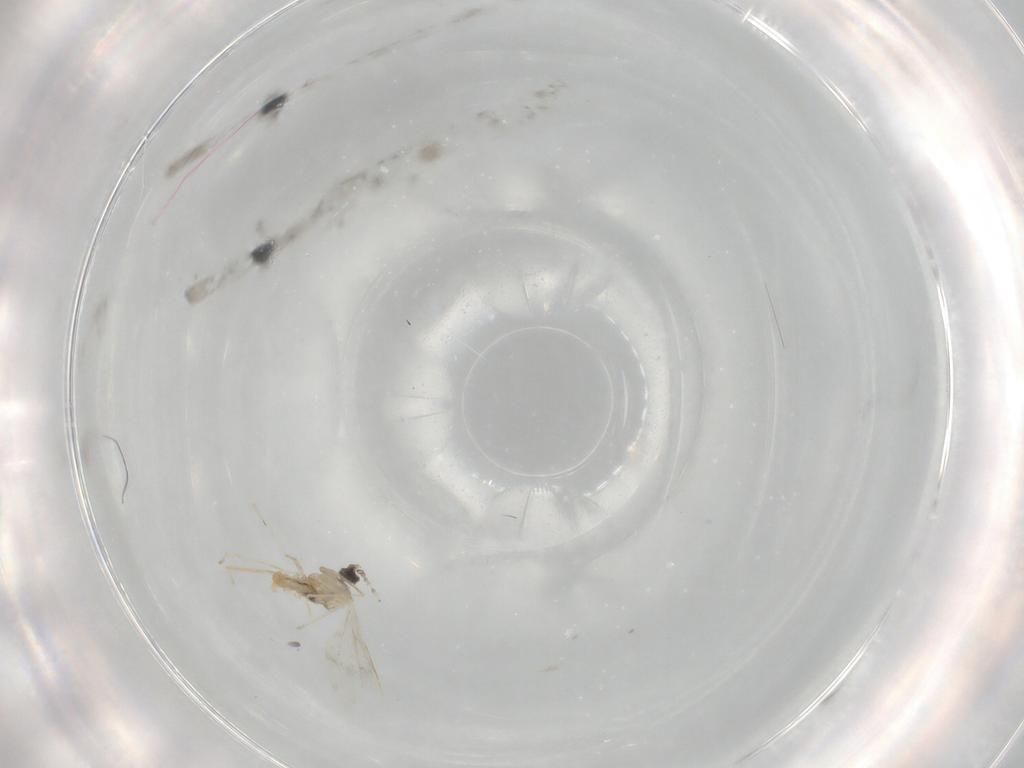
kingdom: Animalia
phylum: Arthropoda
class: Insecta
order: Diptera
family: Cecidomyiidae
